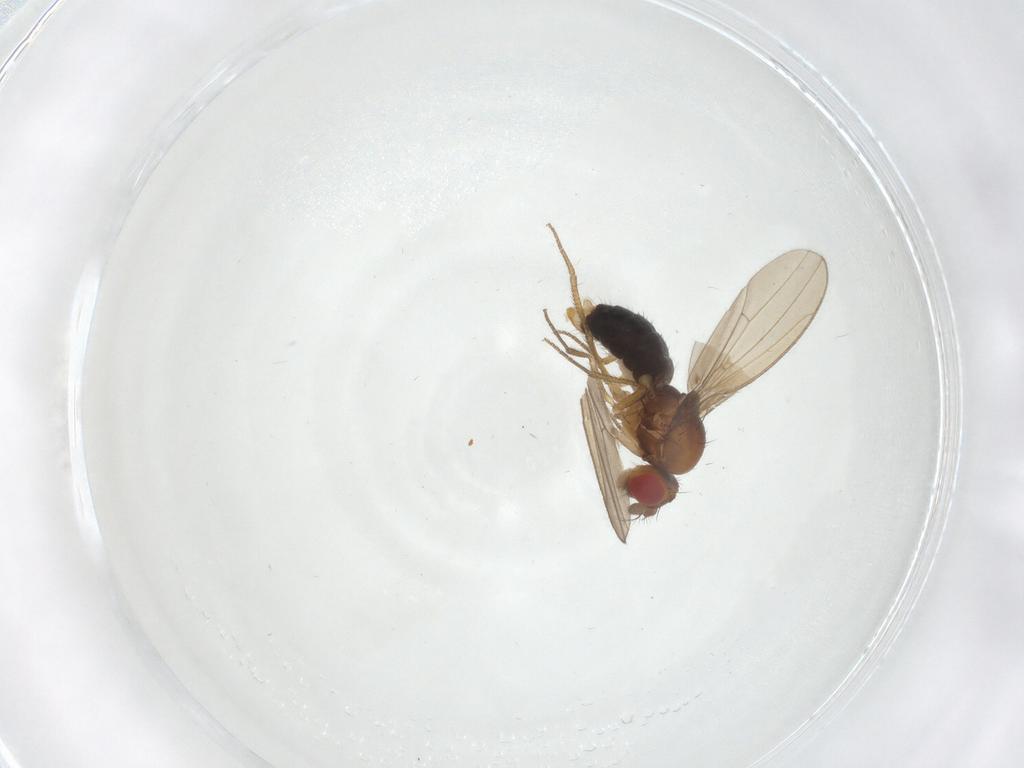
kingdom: Animalia
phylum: Arthropoda
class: Insecta
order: Diptera
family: Drosophilidae
